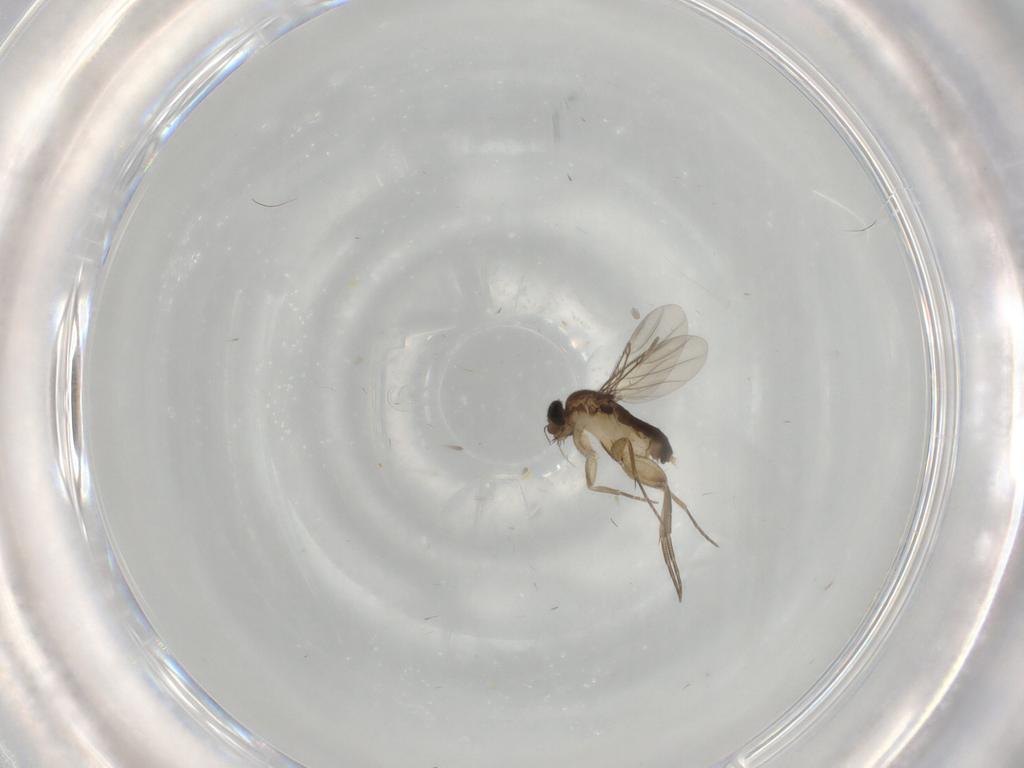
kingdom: Animalia
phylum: Arthropoda
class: Insecta
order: Diptera
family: Phoridae
